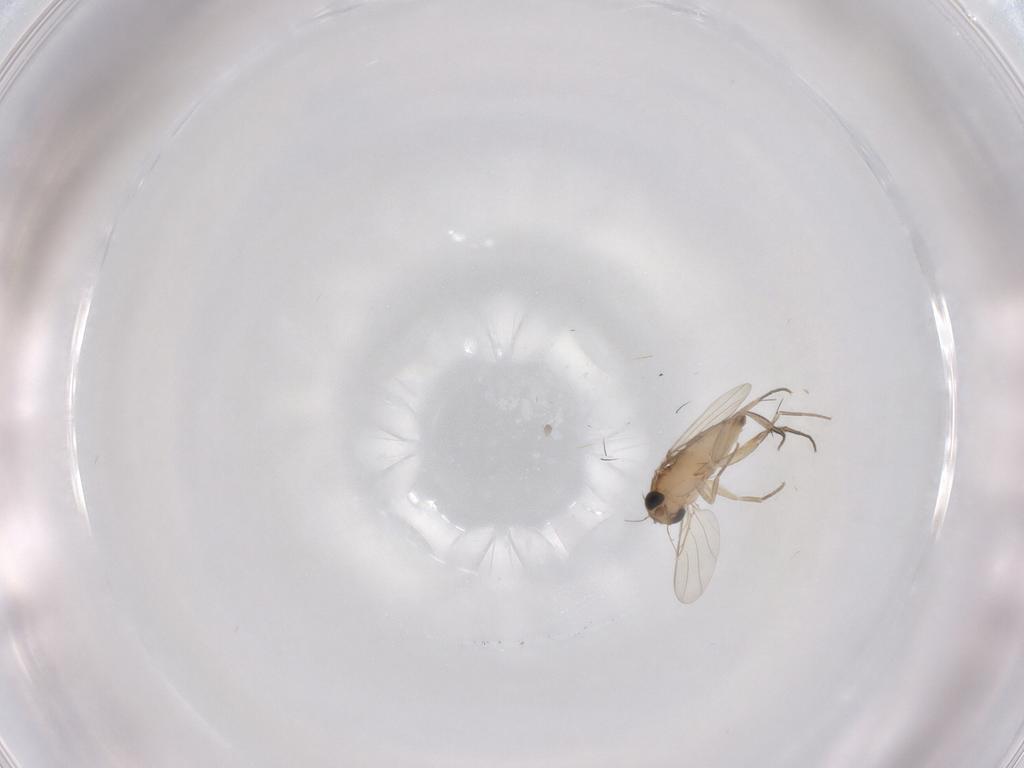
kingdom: Animalia
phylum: Arthropoda
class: Insecta
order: Diptera
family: Phoridae
